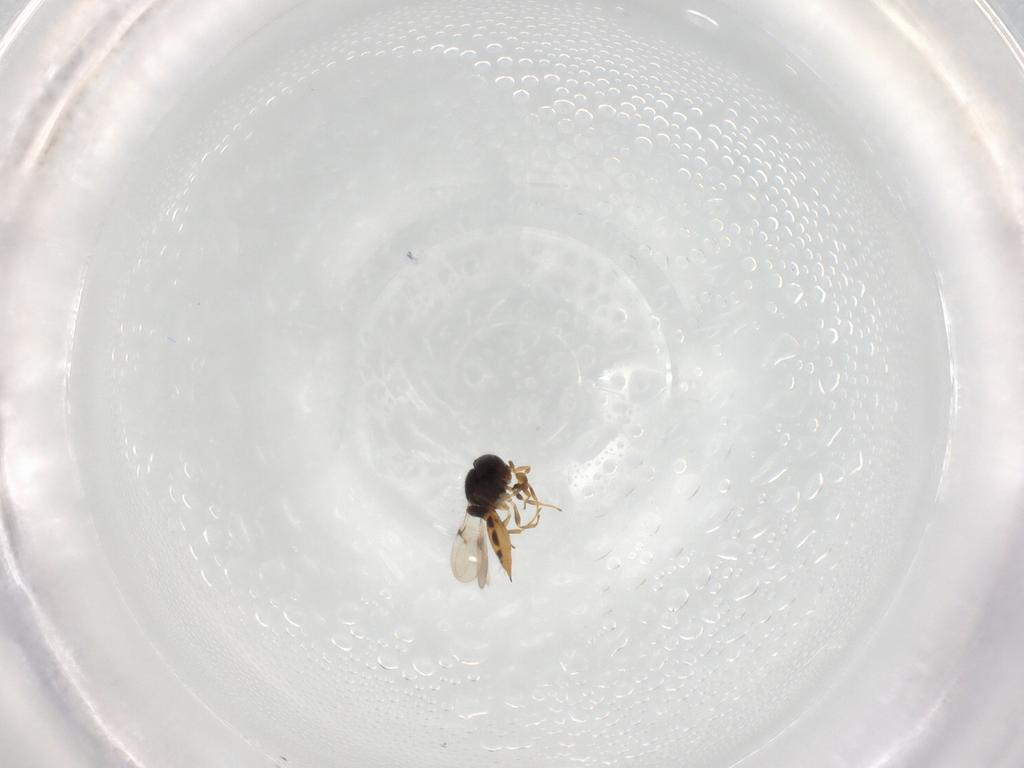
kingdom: Animalia
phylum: Arthropoda
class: Insecta
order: Hymenoptera
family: Scelionidae
